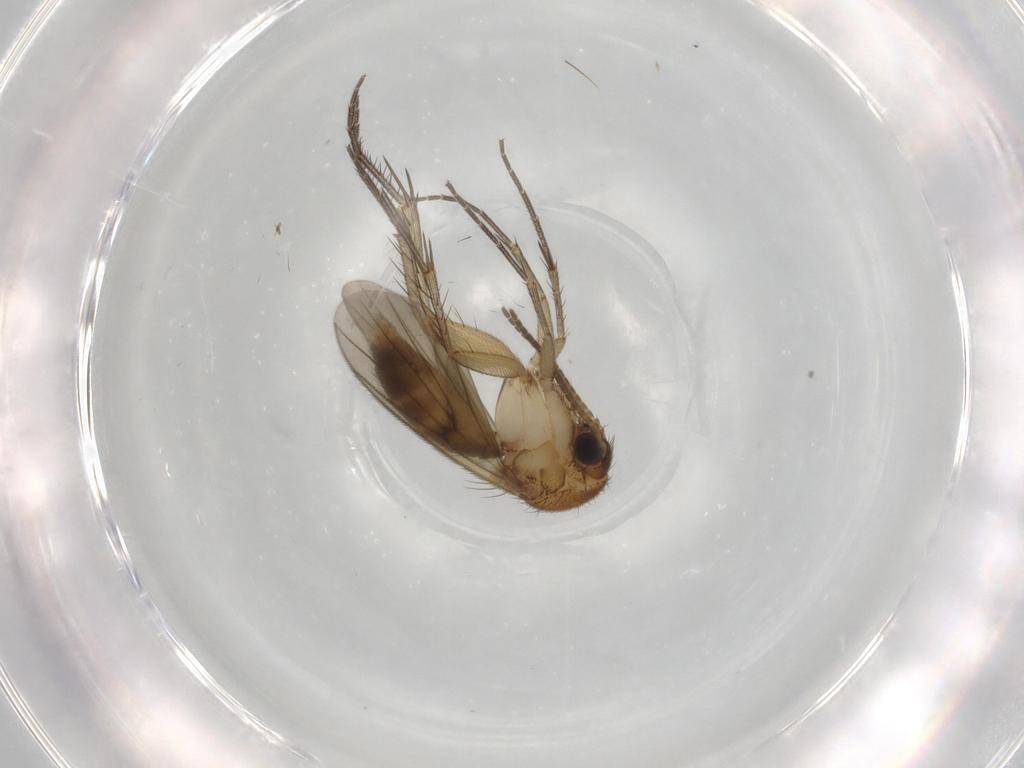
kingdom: Animalia
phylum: Arthropoda
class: Insecta
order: Diptera
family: Mycetophilidae
